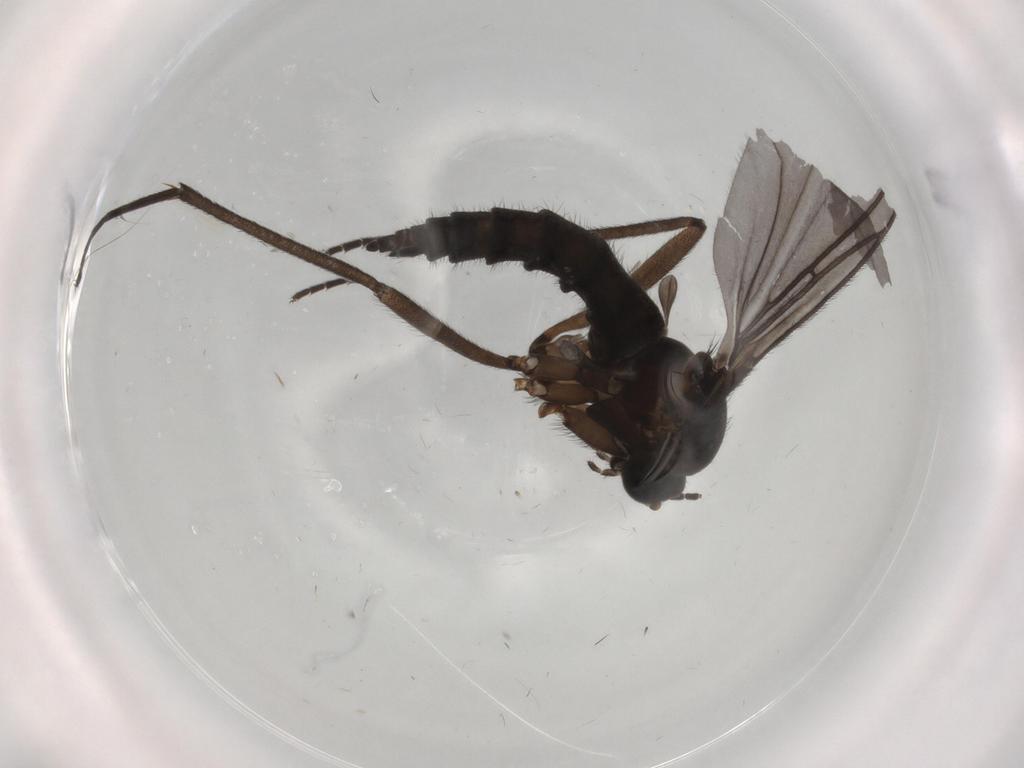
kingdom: Animalia
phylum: Arthropoda
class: Insecta
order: Diptera
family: Sciaridae
